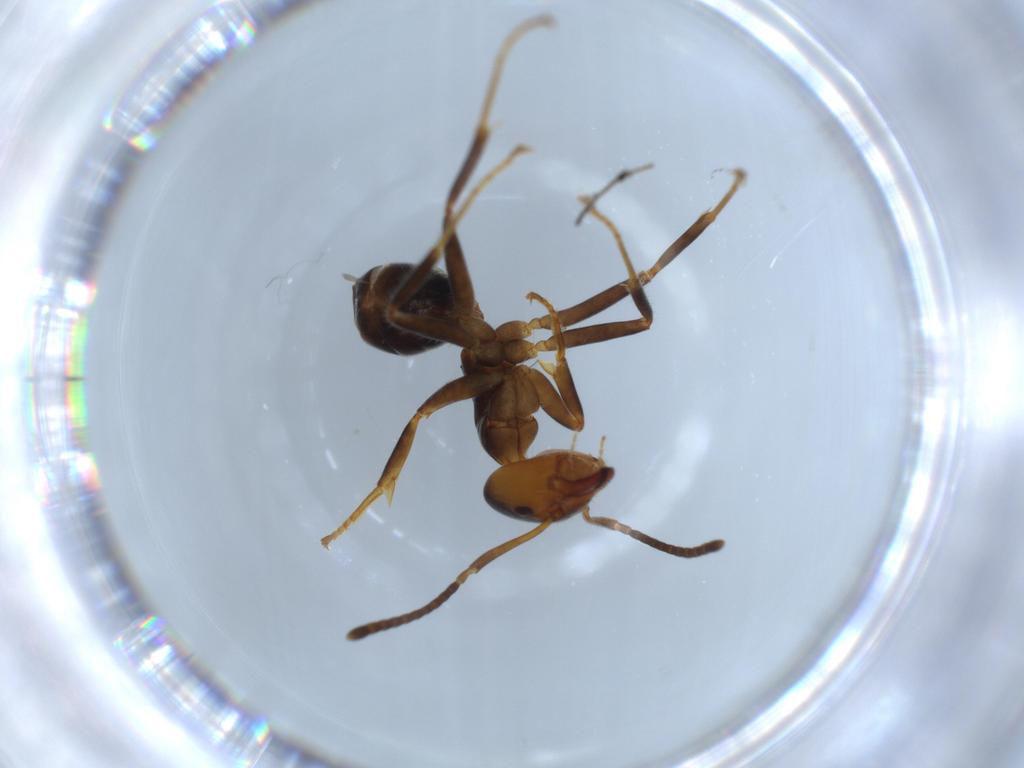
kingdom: Animalia
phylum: Arthropoda
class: Insecta
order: Hymenoptera
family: Formicidae
